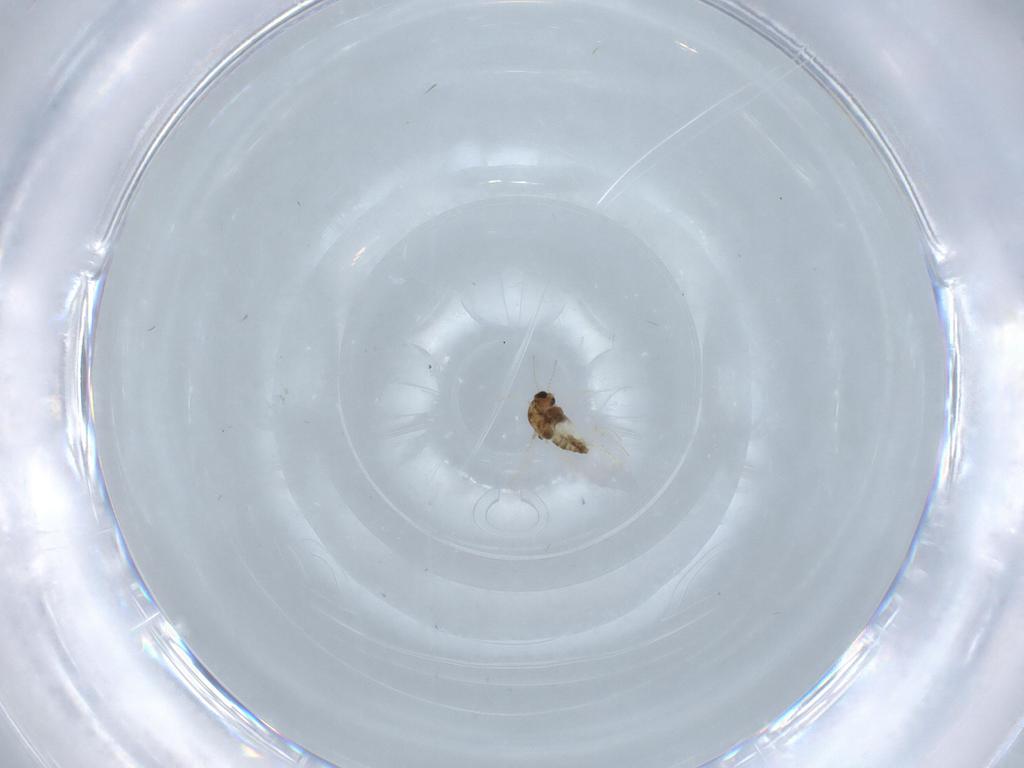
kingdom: Animalia
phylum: Arthropoda
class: Insecta
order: Diptera
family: Chironomidae
